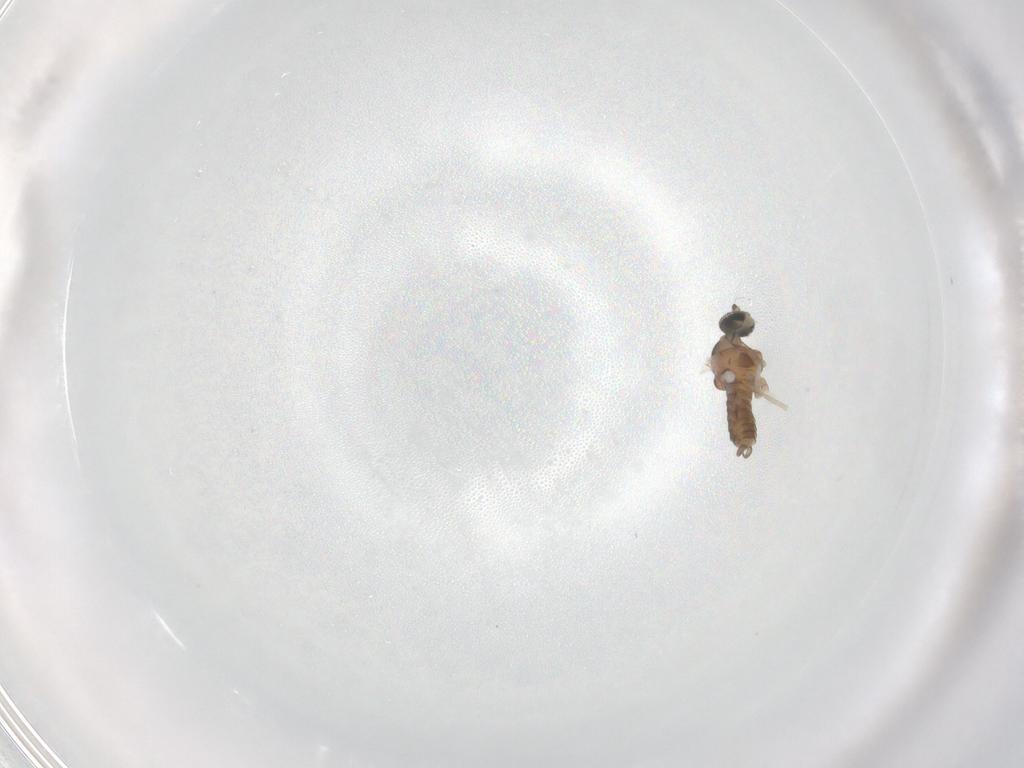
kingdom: Animalia
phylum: Arthropoda
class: Insecta
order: Diptera
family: Cecidomyiidae
